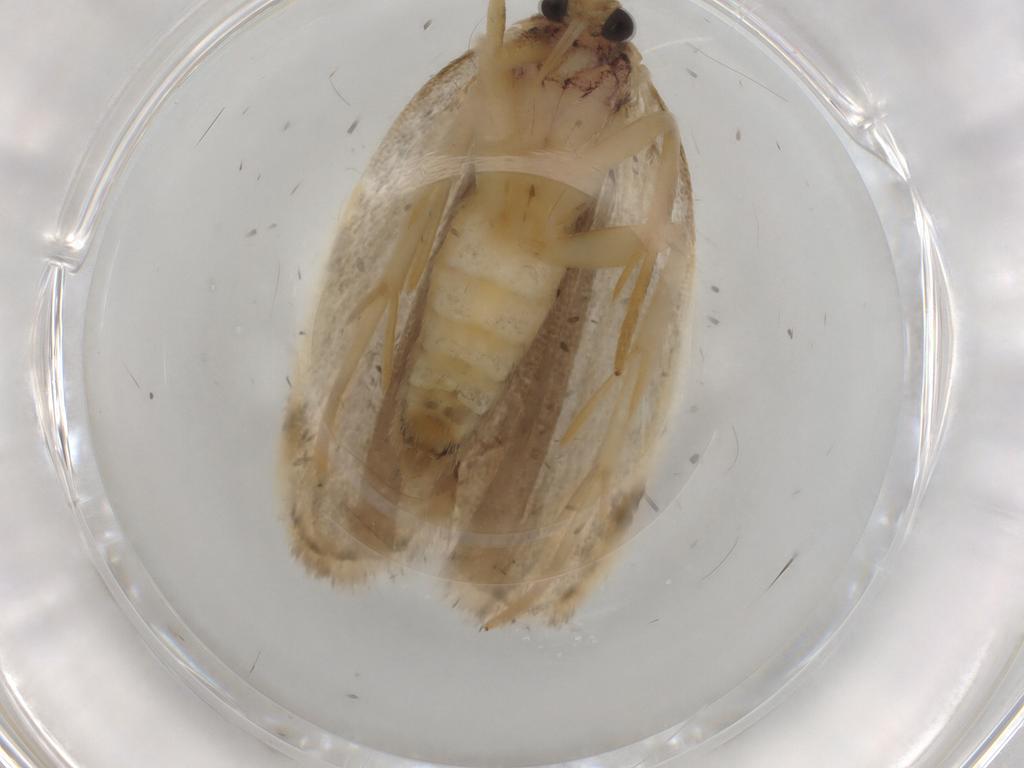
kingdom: Animalia
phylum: Arthropoda
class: Insecta
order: Lepidoptera
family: Depressariidae
